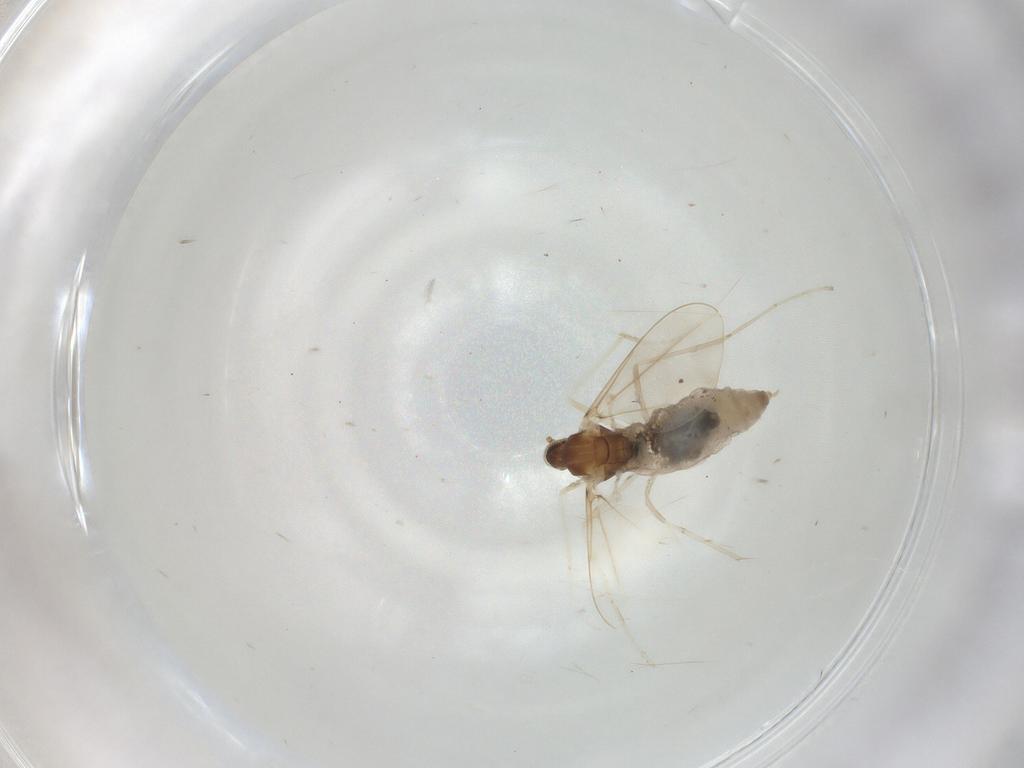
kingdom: Animalia
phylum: Arthropoda
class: Insecta
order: Diptera
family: Cecidomyiidae
